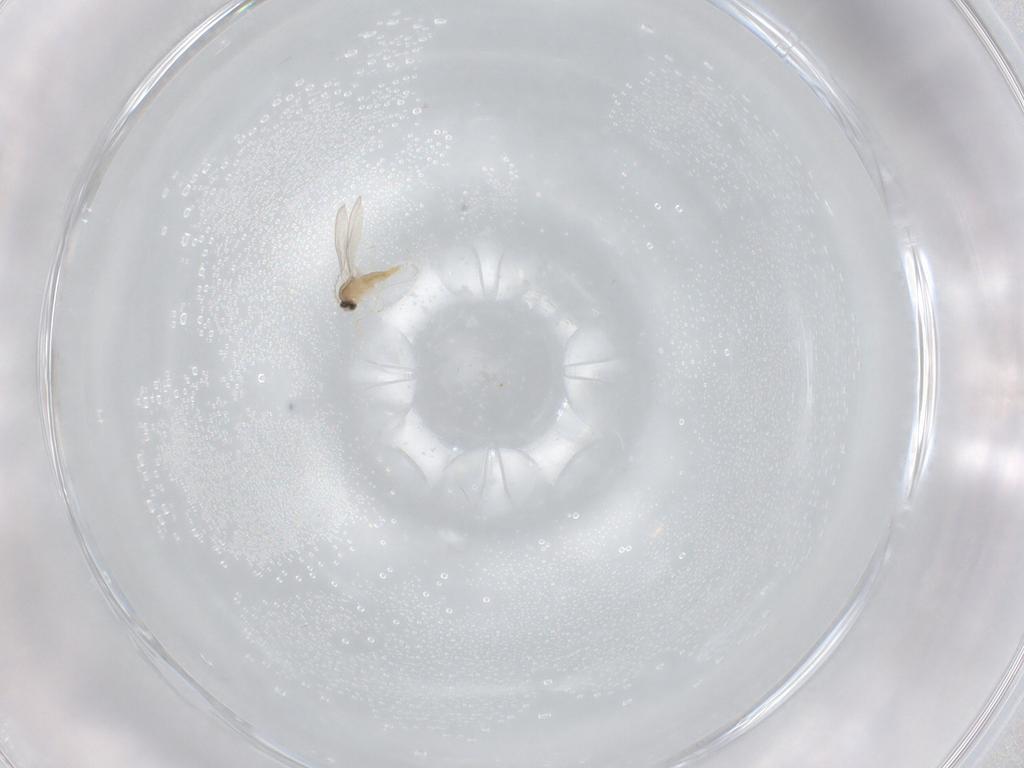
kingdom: Animalia
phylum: Arthropoda
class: Insecta
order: Diptera
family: Cecidomyiidae
